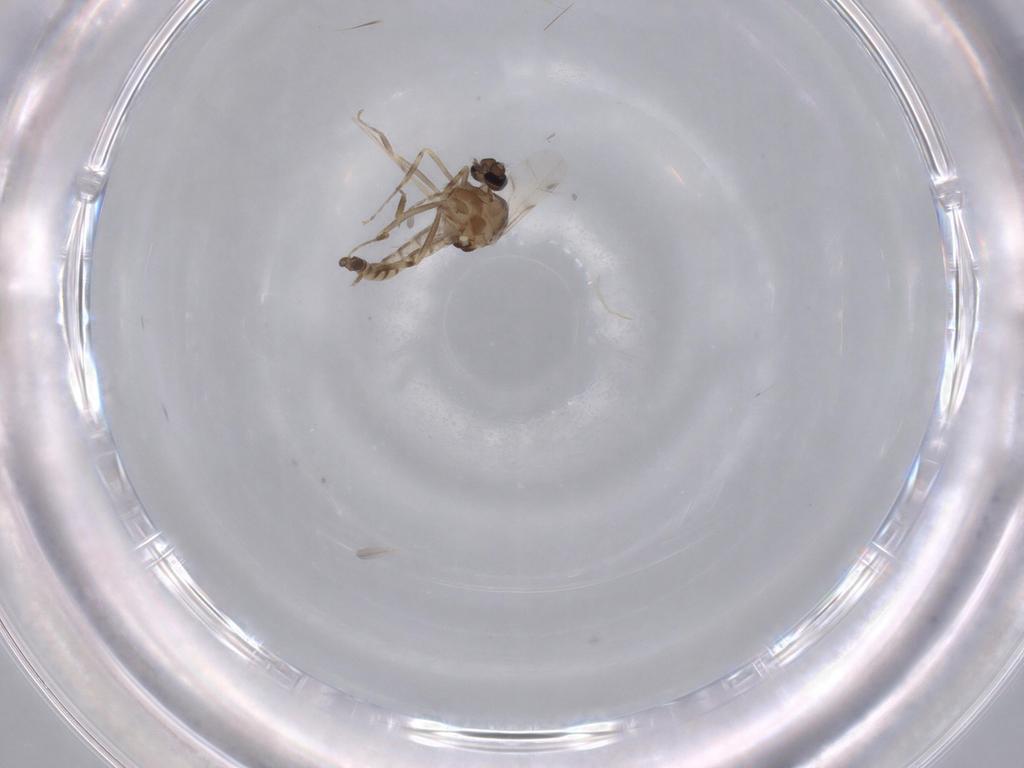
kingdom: Animalia
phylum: Arthropoda
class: Insecta
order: Diptera
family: Ceratopogonidae
